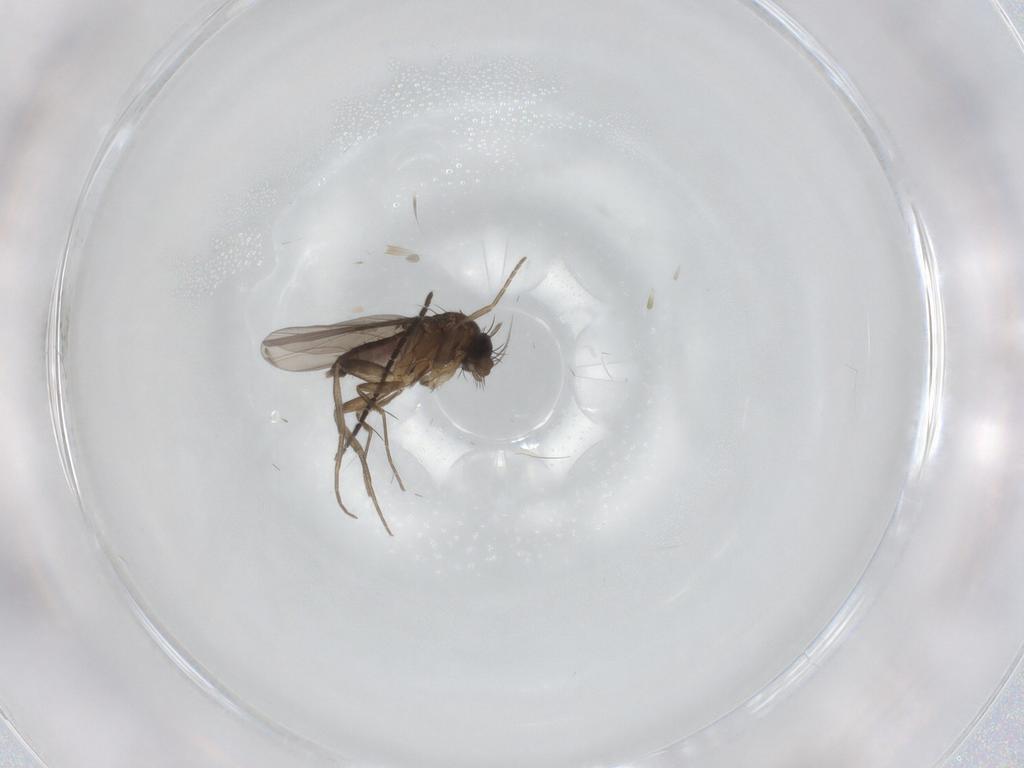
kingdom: Animalia
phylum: Arthropoda
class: Insecta
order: Diptera
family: Phoridae
